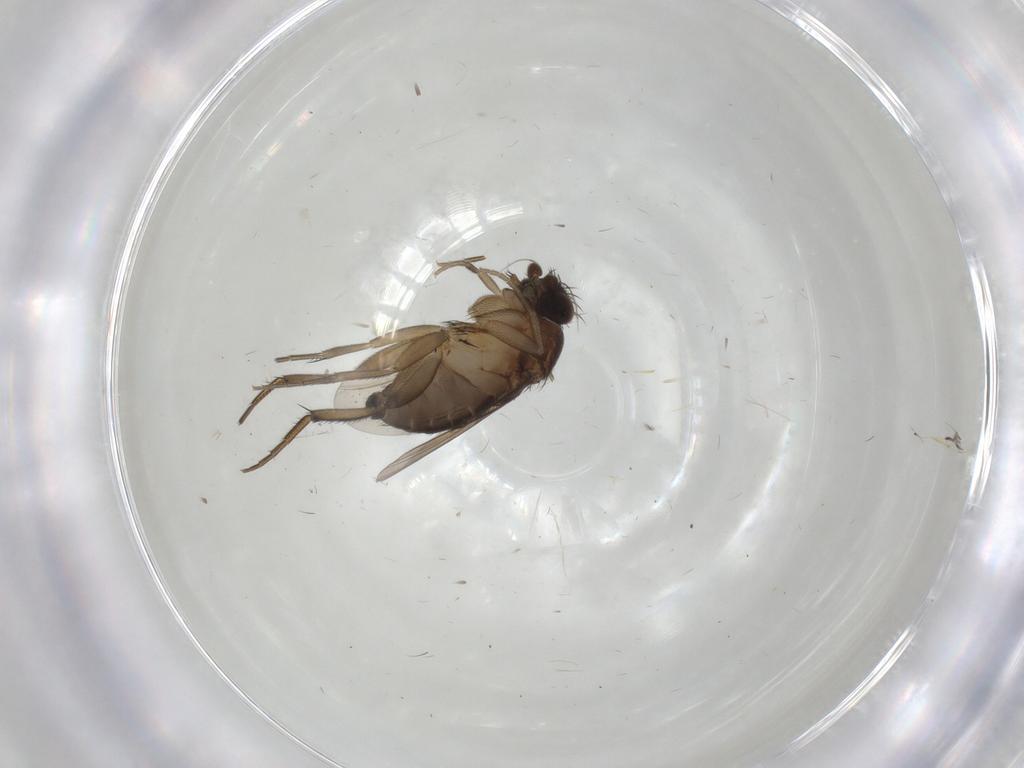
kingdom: Animalia
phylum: Arthropoda
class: Insecta
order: Diptera
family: Phoridae
